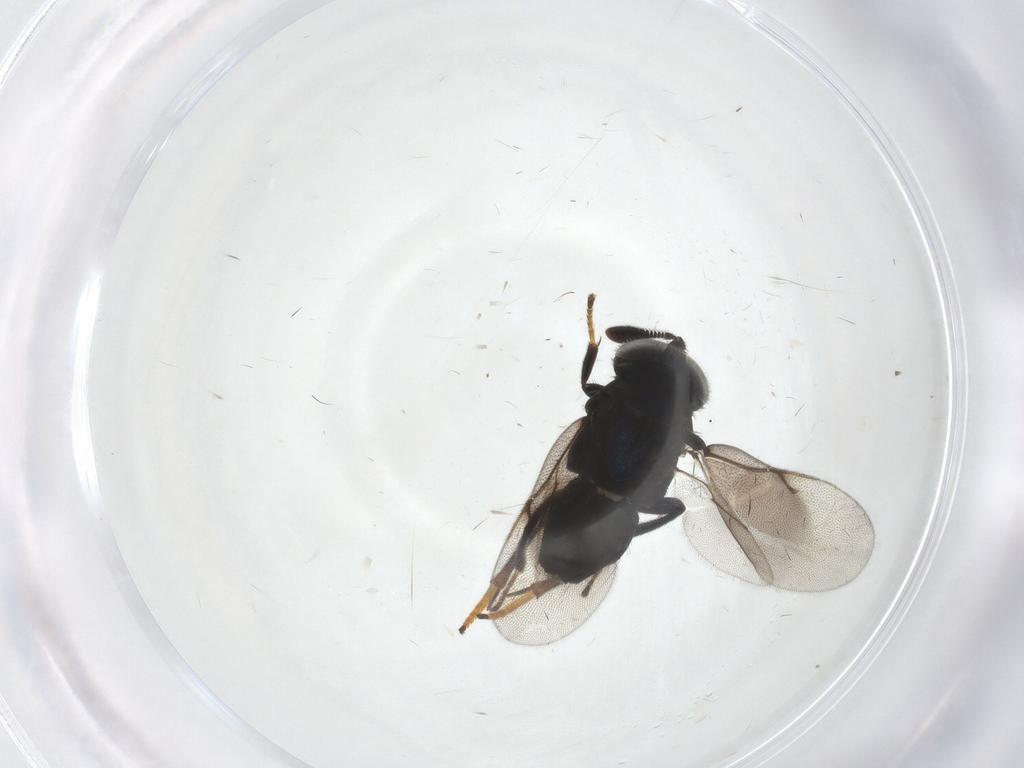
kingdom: Animalia
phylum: Arthropoda
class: Insecta
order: Hymenoptera
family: Encyrtidae
